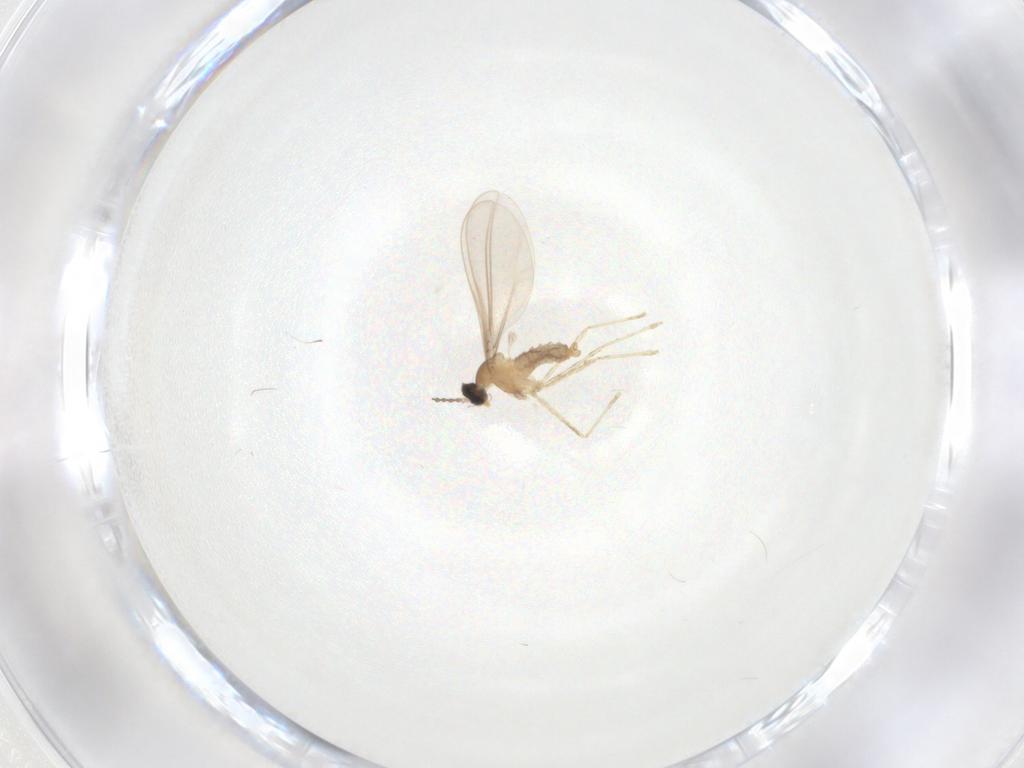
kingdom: Animalia
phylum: Arthropoda
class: Insecta
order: Diptera
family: Cecidomyiidae
